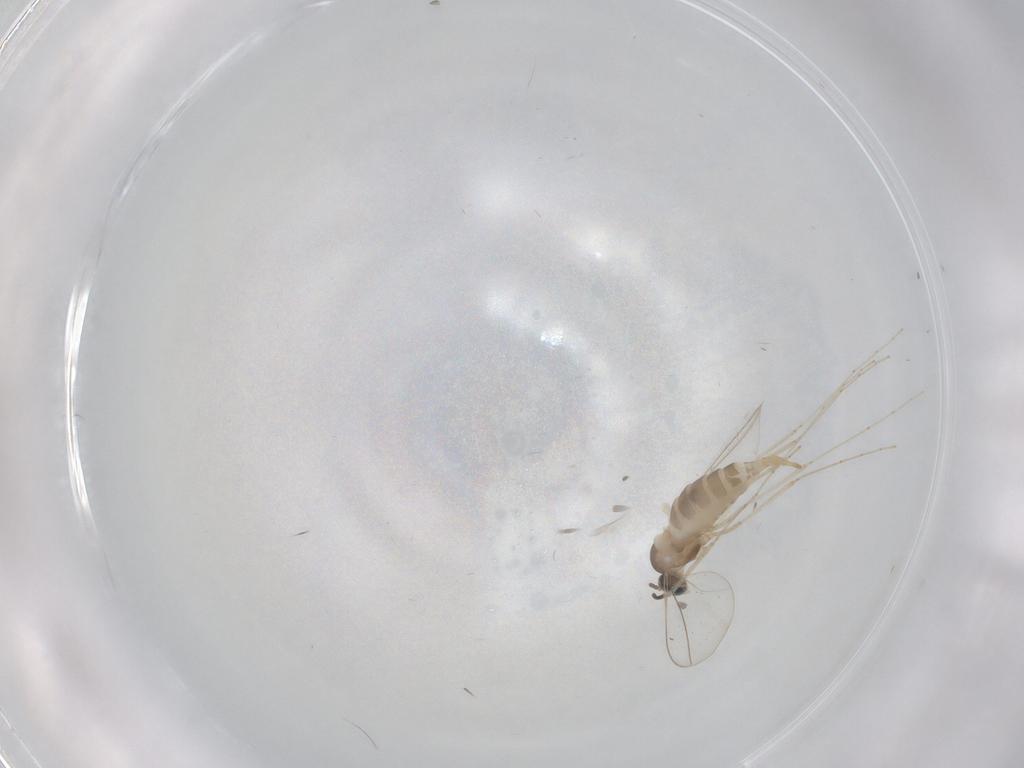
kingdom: Animalia
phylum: Arthropoda
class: Insecta
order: Diptera
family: Cecidomyiidae
